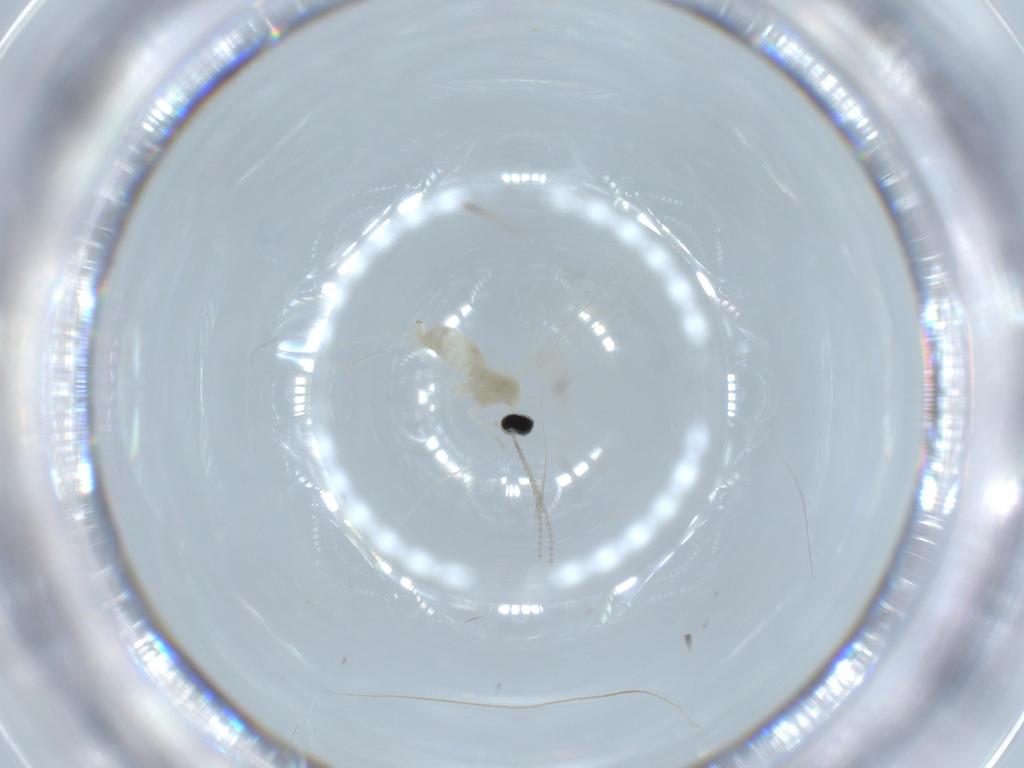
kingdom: Animalia
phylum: Arthropoda
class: Insecta
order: Diptera
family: Cecidomyiidae
